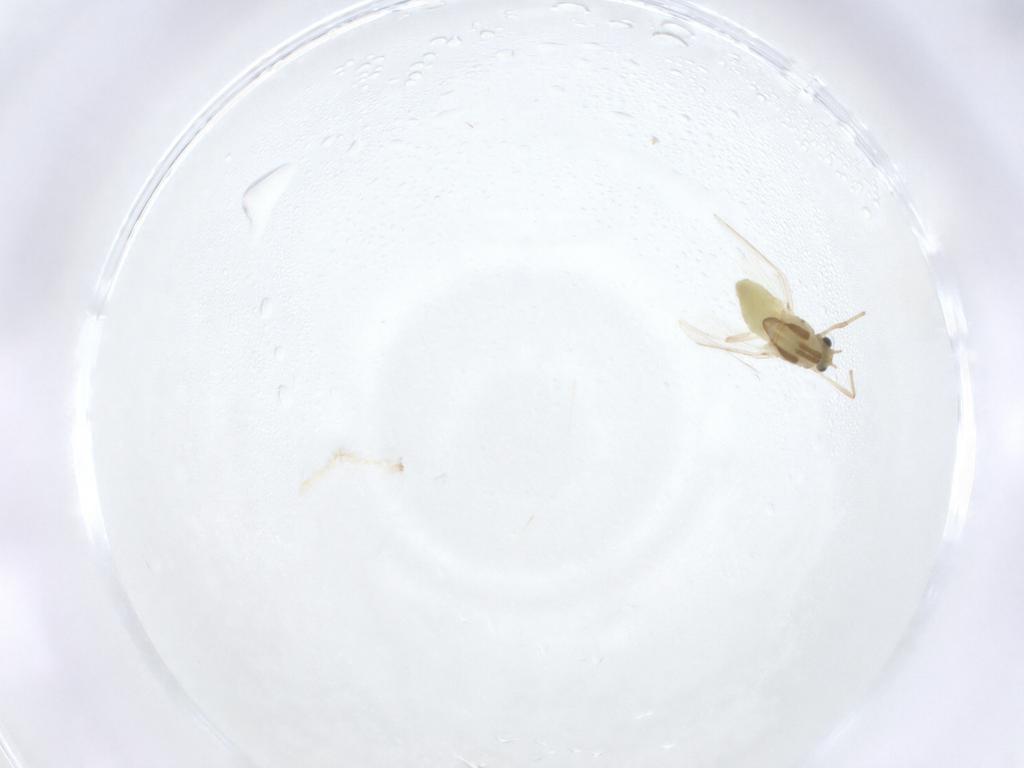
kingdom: Animalia
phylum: Arthropoda
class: Insecta
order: Diptera
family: Chironomidae
